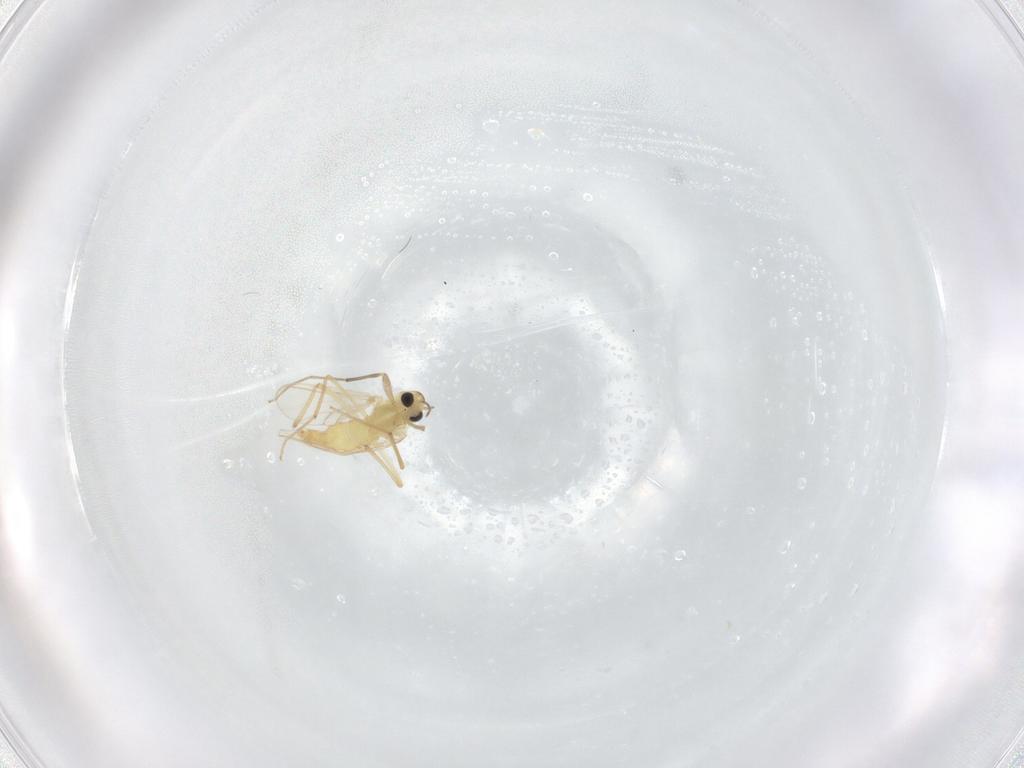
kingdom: Animalia
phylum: Arthropoda
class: Insecta
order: Diptera
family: Chironomidae
